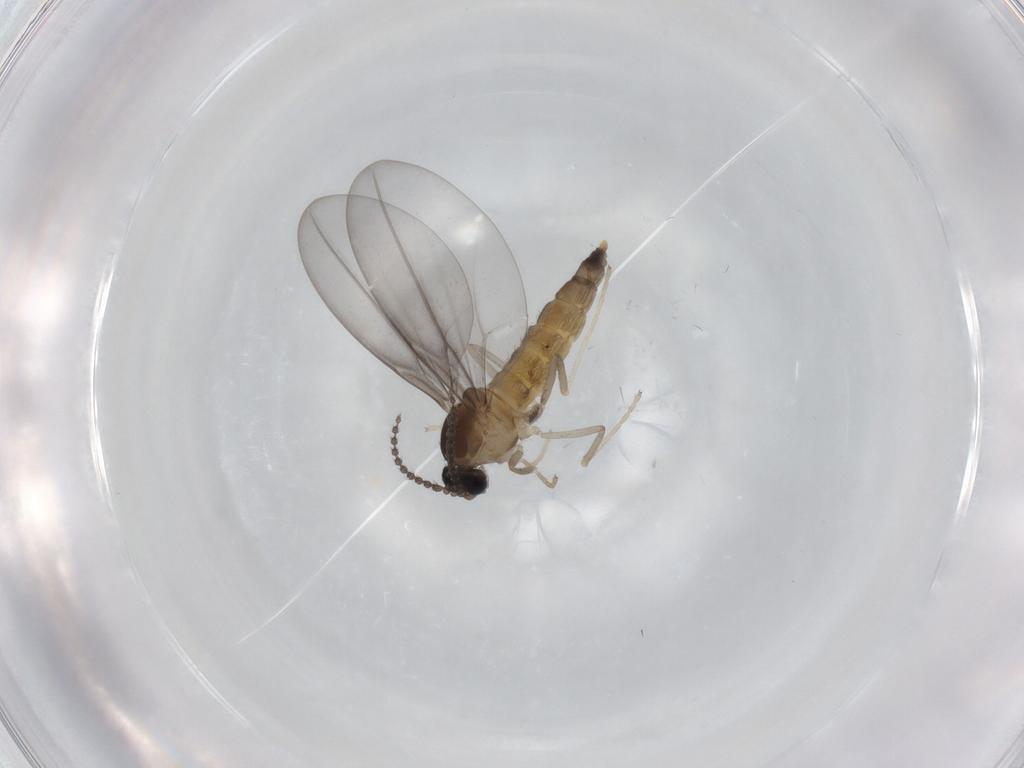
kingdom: Animalia
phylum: Arthropoda
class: Insecta
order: Diptera
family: Cecidomyiidae
